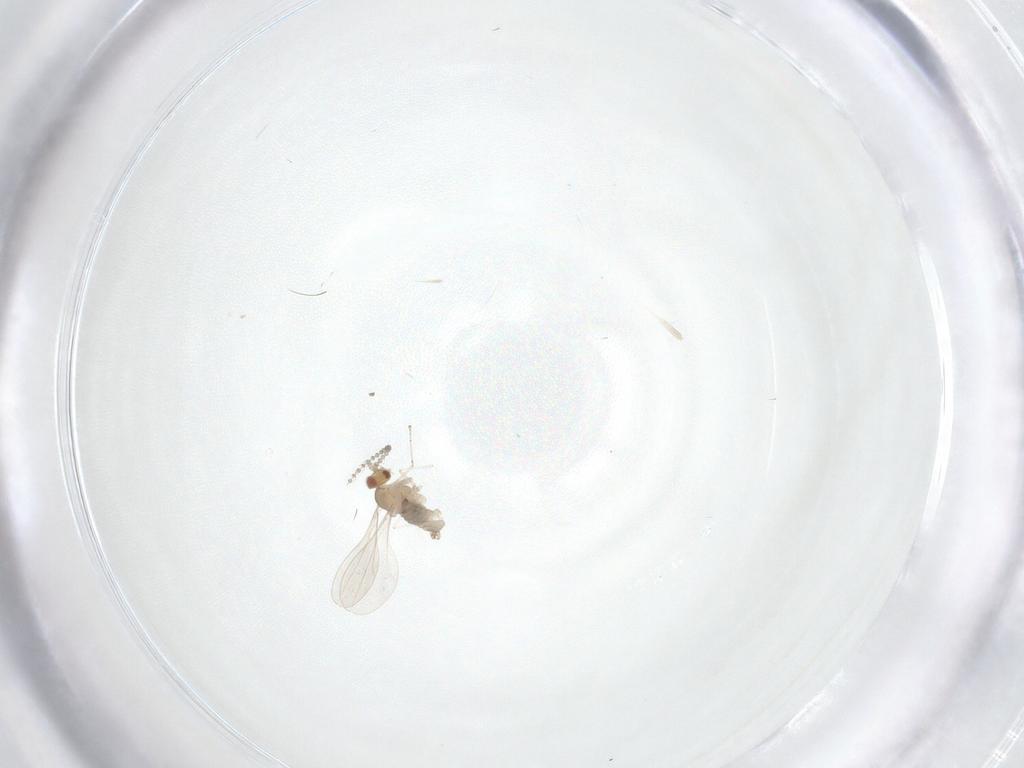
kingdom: Animalia
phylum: Arthropoda
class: Insecta
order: Diptera
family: Cecidomyiidae
